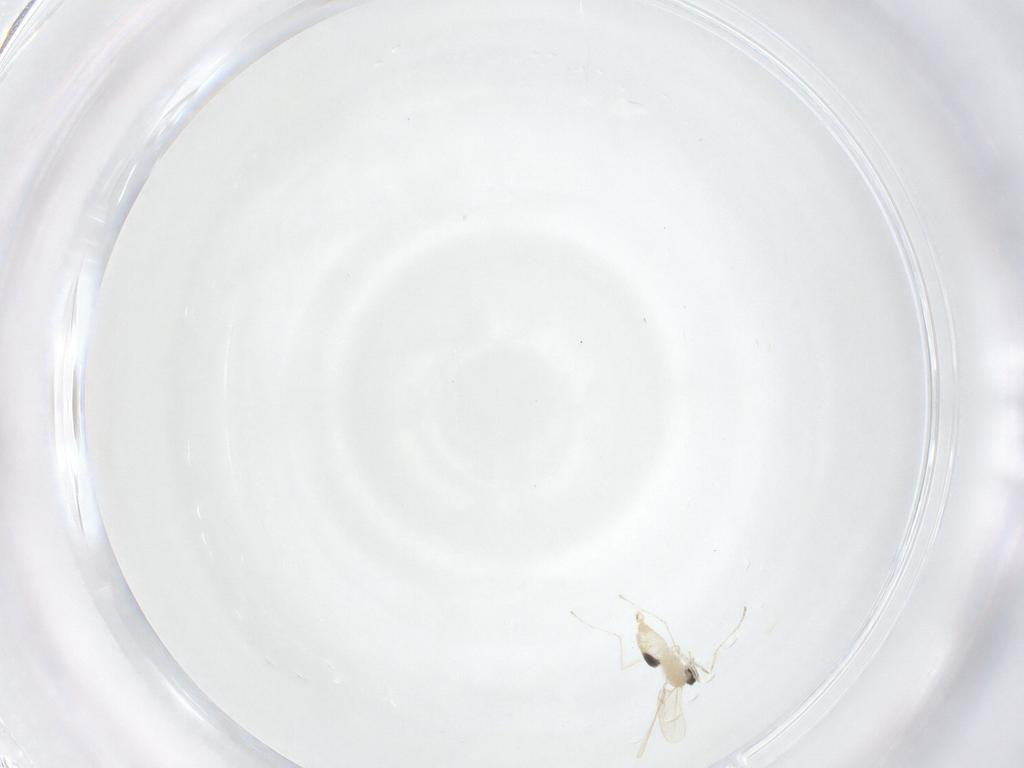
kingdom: Animalia
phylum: Arthropoda
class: Insecta
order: Diptera
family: Cecidomyiidae
